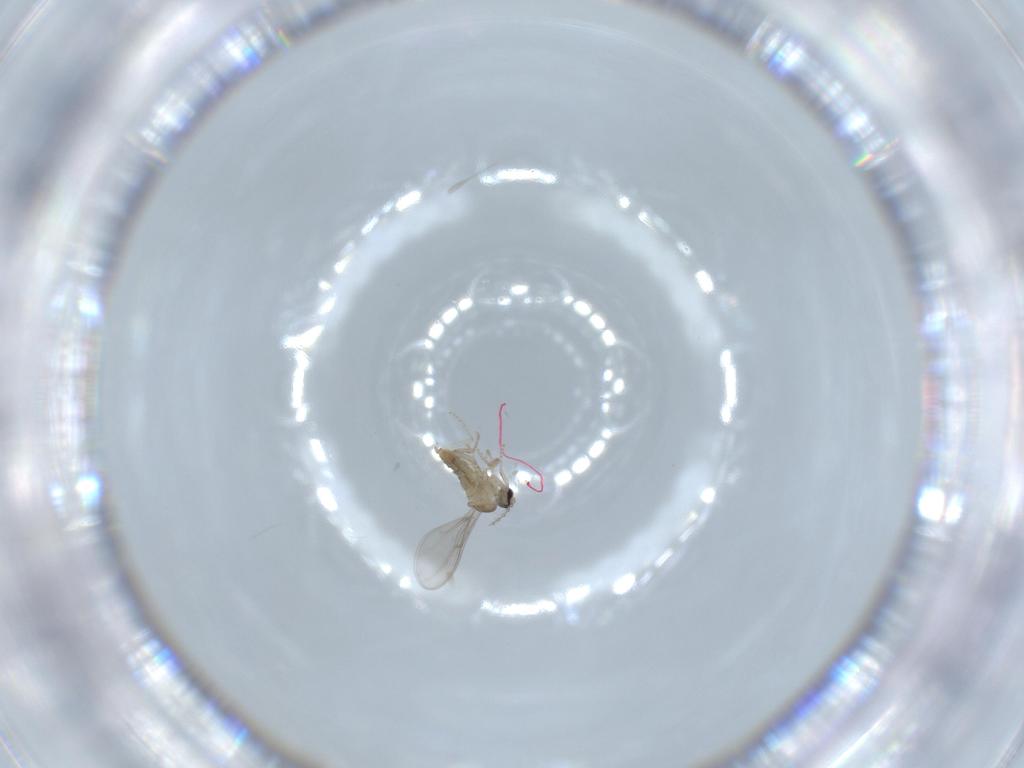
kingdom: Animalia
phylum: Arthropoda
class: Insecta
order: Diptera
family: Cecidomyiidae
